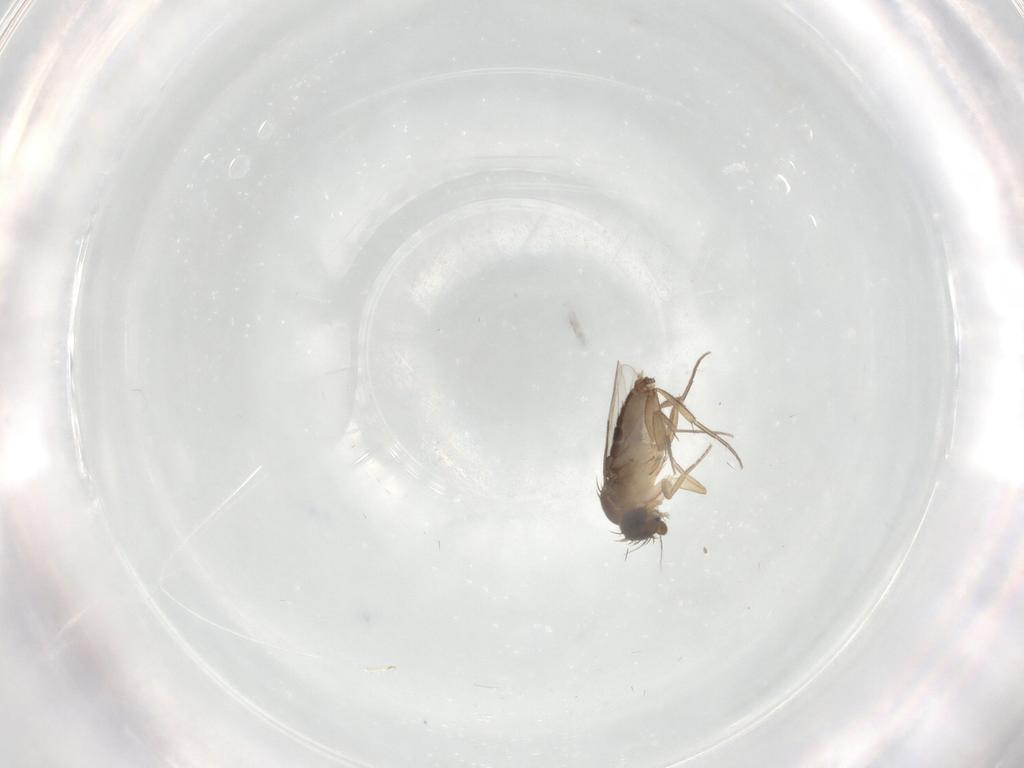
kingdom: Animalia
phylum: Arthropoda
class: Insecta
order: Diptera
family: Phoridae
